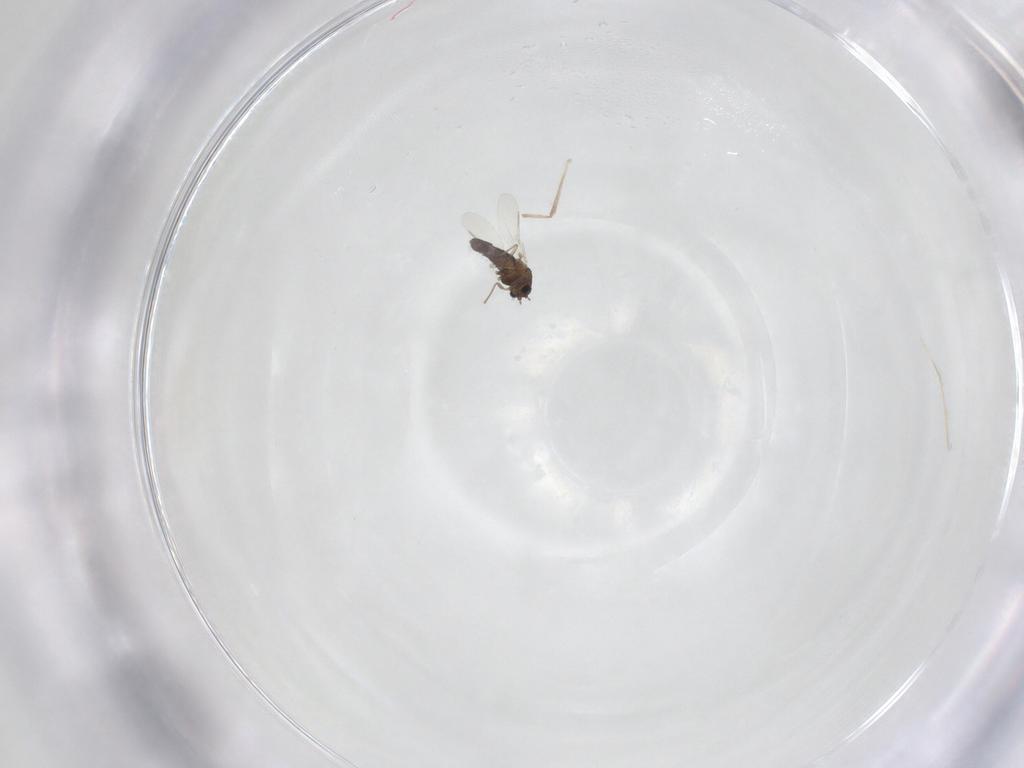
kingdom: Animalia
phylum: Arthropoda
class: Insecta
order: Diptera
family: Chironomidae
